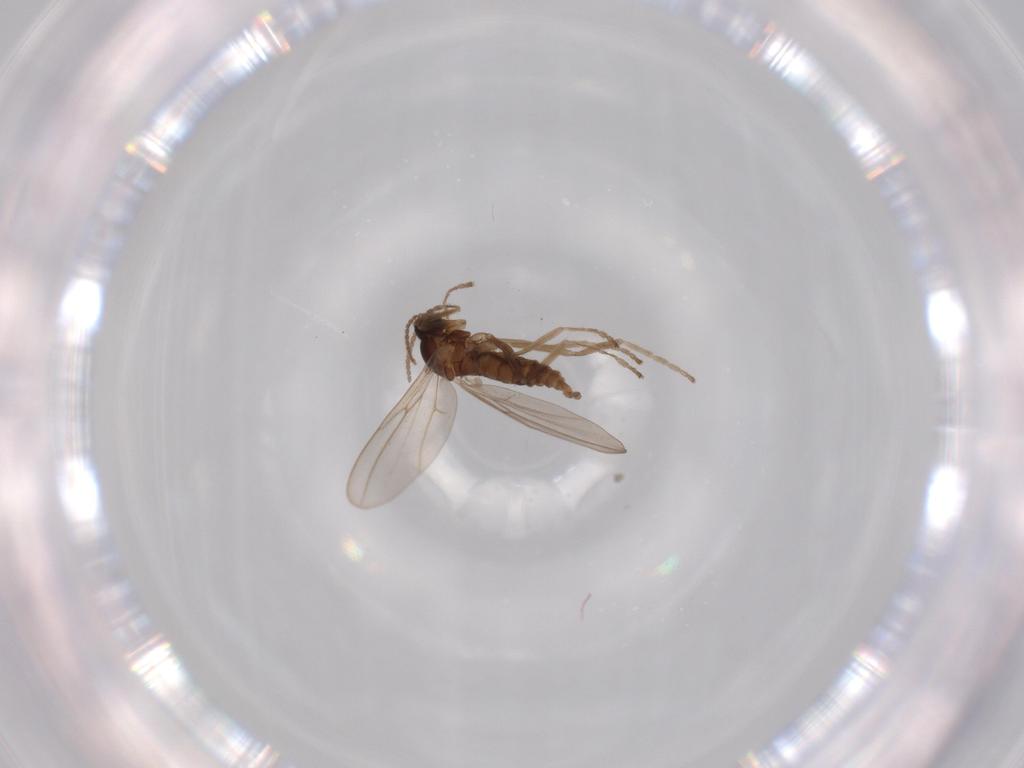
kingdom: Animalia
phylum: Arthropoda
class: Insecta
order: Diptera
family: Cecidomyiidae
